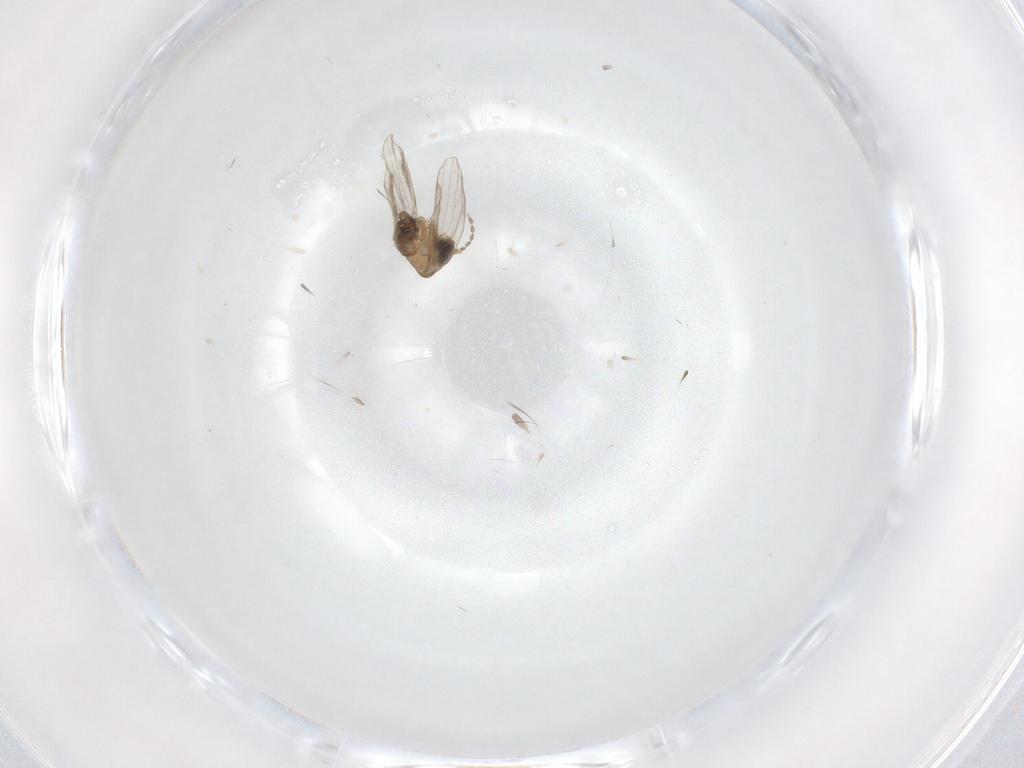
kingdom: Animalia
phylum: Arthropoda
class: Insecta
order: Diptera
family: Psychodidae
